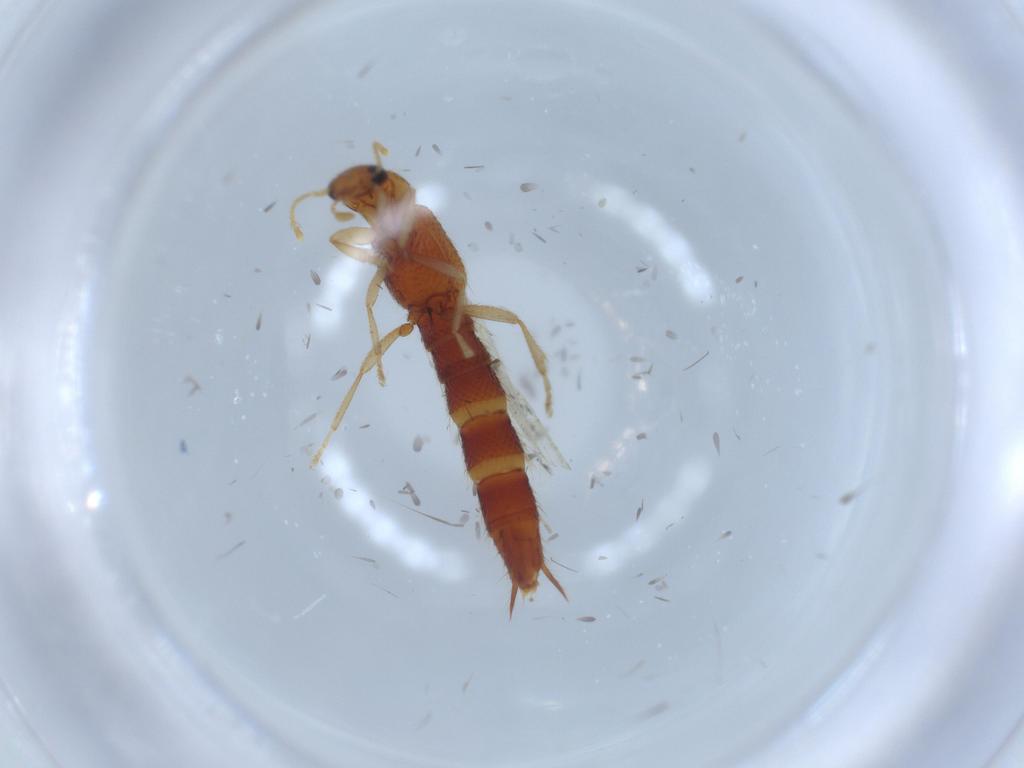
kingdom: Animalia
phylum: Arthropoda
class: Insecta
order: Coleoptera
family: Staphylinidae
